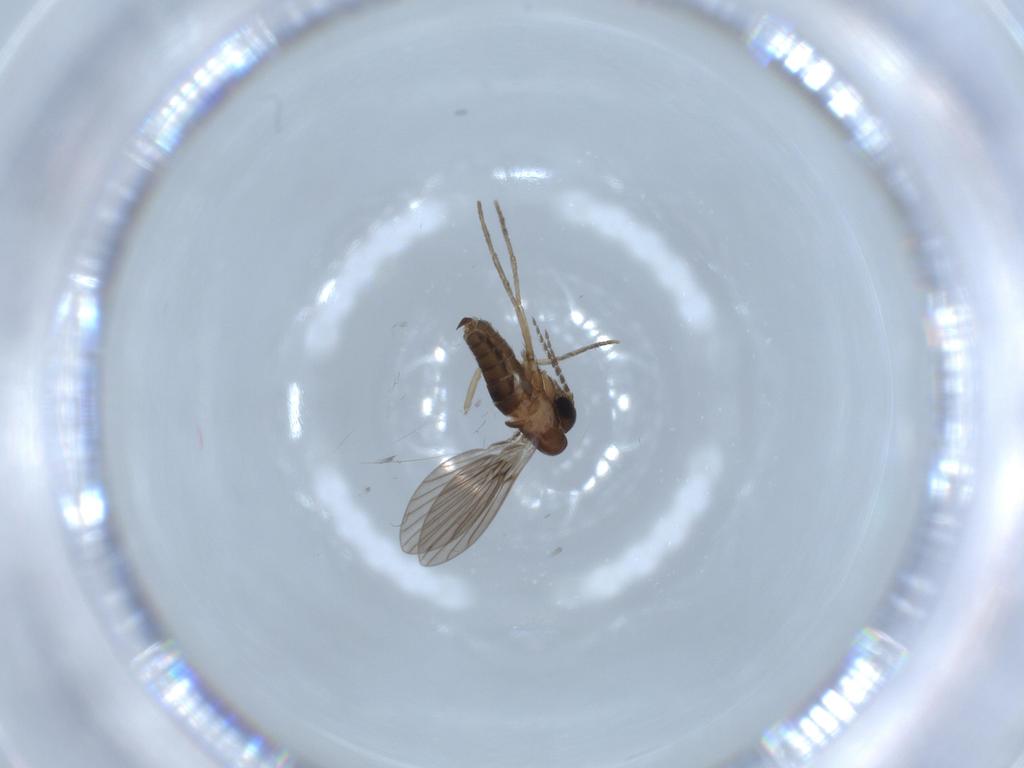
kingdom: Animalia
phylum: Arthropoda
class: Insecta
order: Diptera
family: Psychodidae
